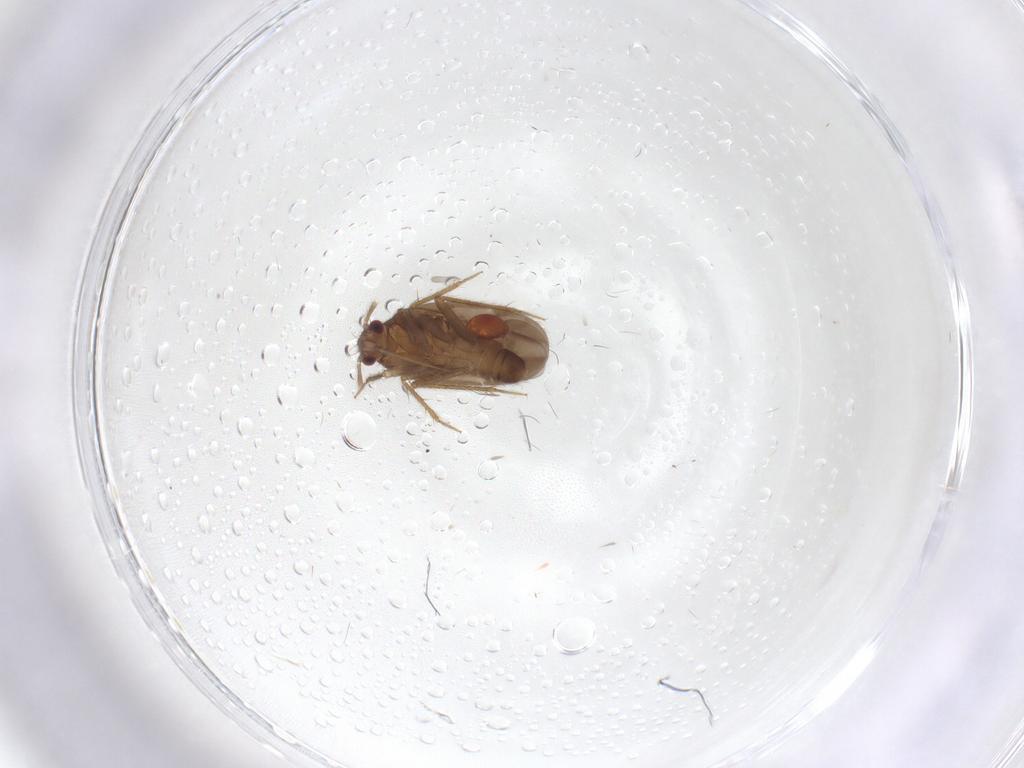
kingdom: Animalia
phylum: Arthropoda
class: Insecta
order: Hemiptera
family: Ceratocombidae
